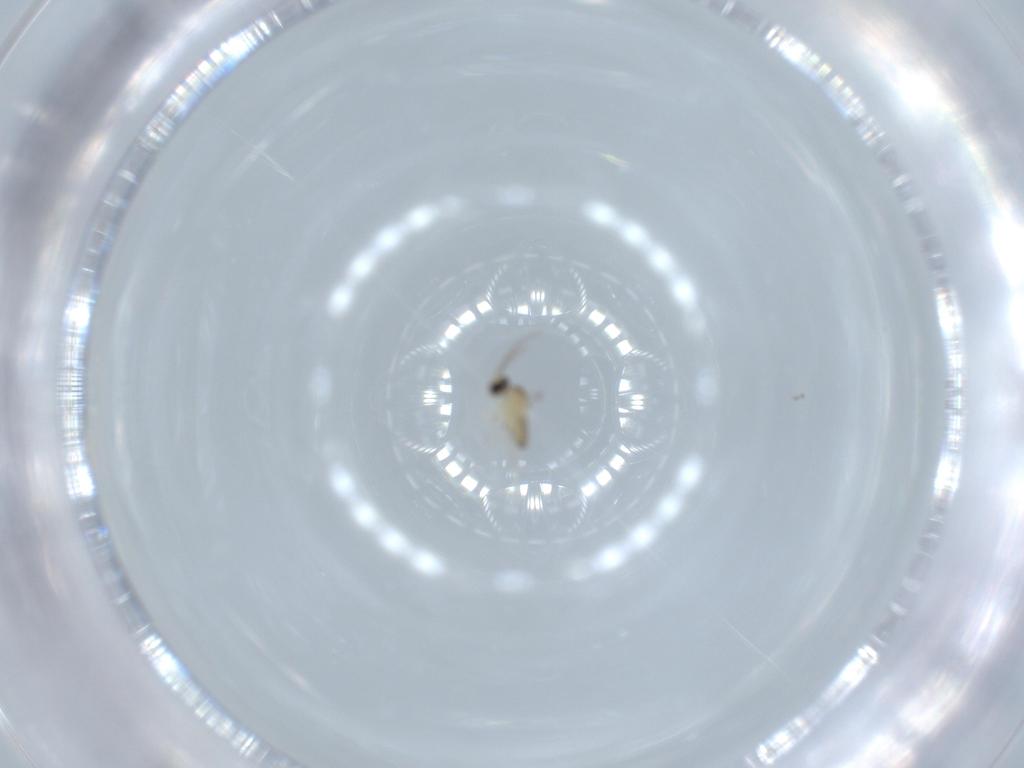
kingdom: Animalia
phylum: Arthropoda
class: Insecta
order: Diptera
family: Cecidomyiidae
